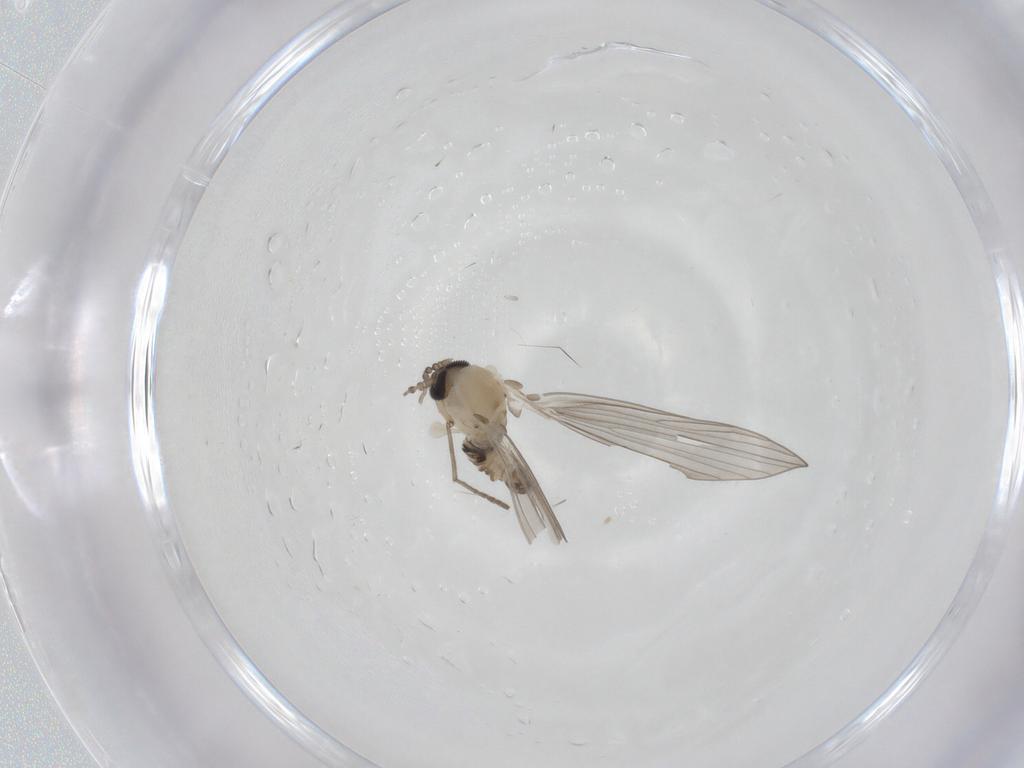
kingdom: Animalia
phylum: Arthropoda
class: Insecta
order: Diptera
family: Psychodidae
